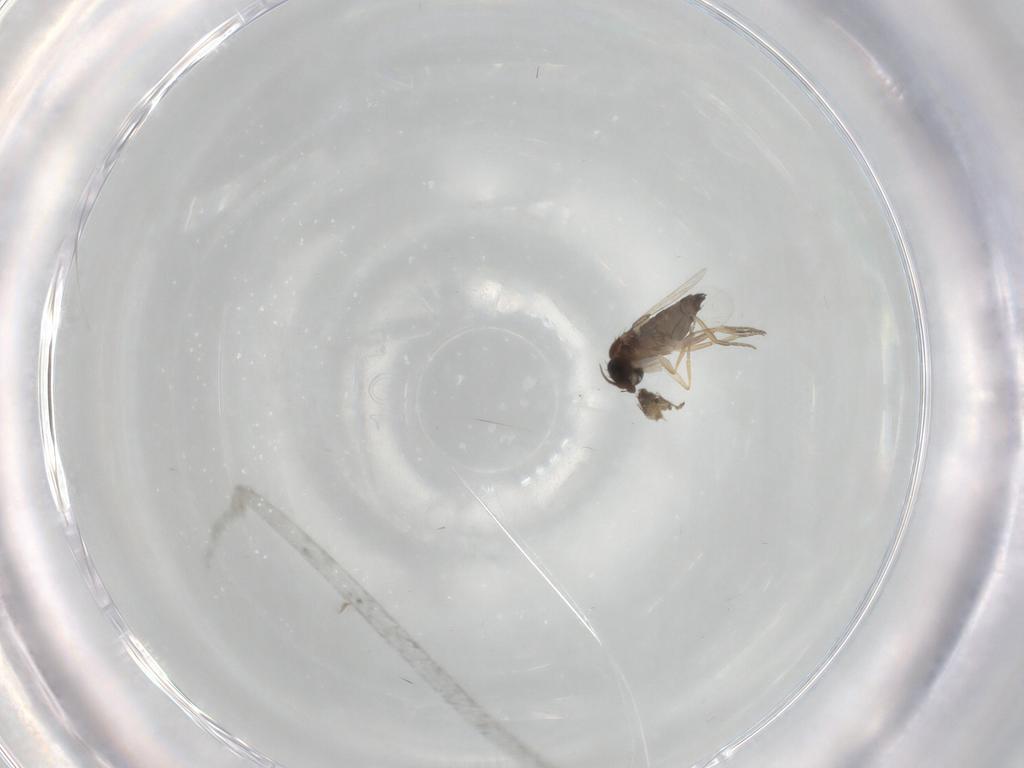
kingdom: Animalia
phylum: Arthropoda
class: Insecta
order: Diptera
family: Phoridae
